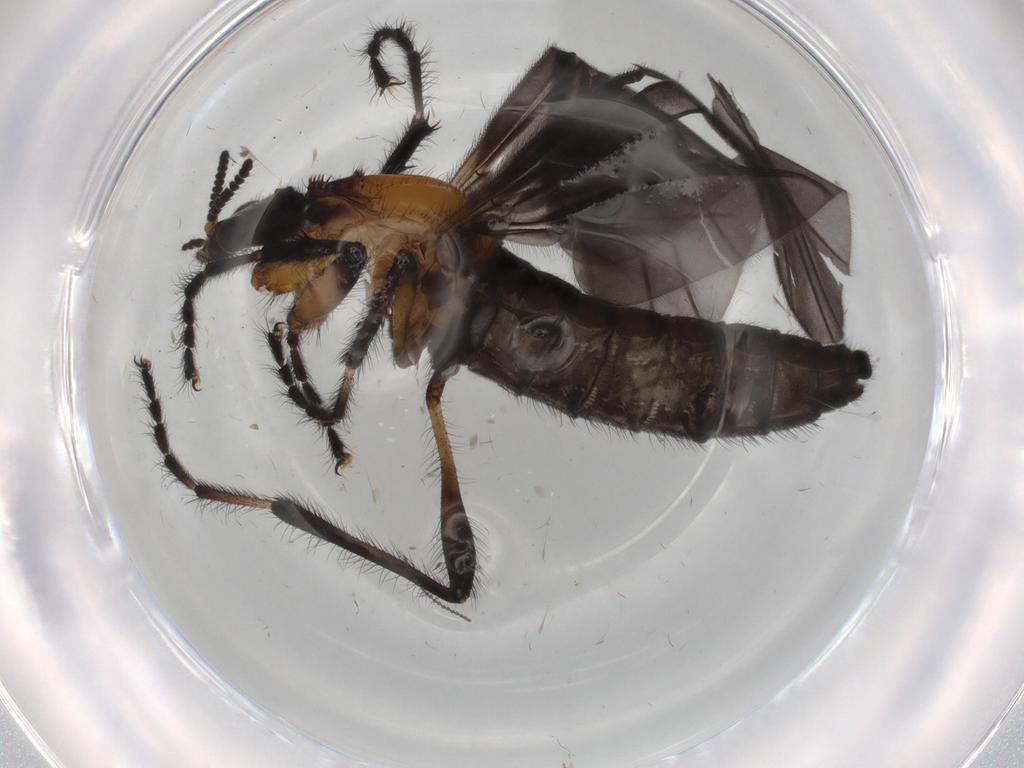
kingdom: Animalia
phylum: Arthropoda
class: Insecta
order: Diptera
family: Bibionidae
